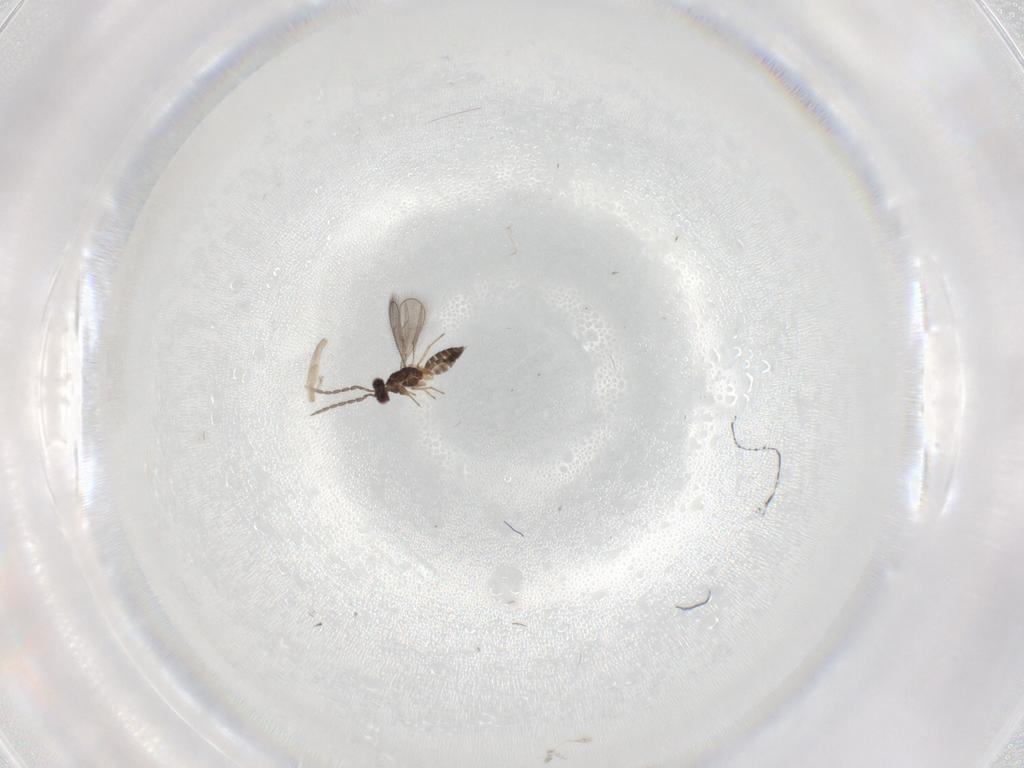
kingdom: Animalia
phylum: Arthropoda
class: Insecta
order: Hymenoptera
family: Eulophidae
